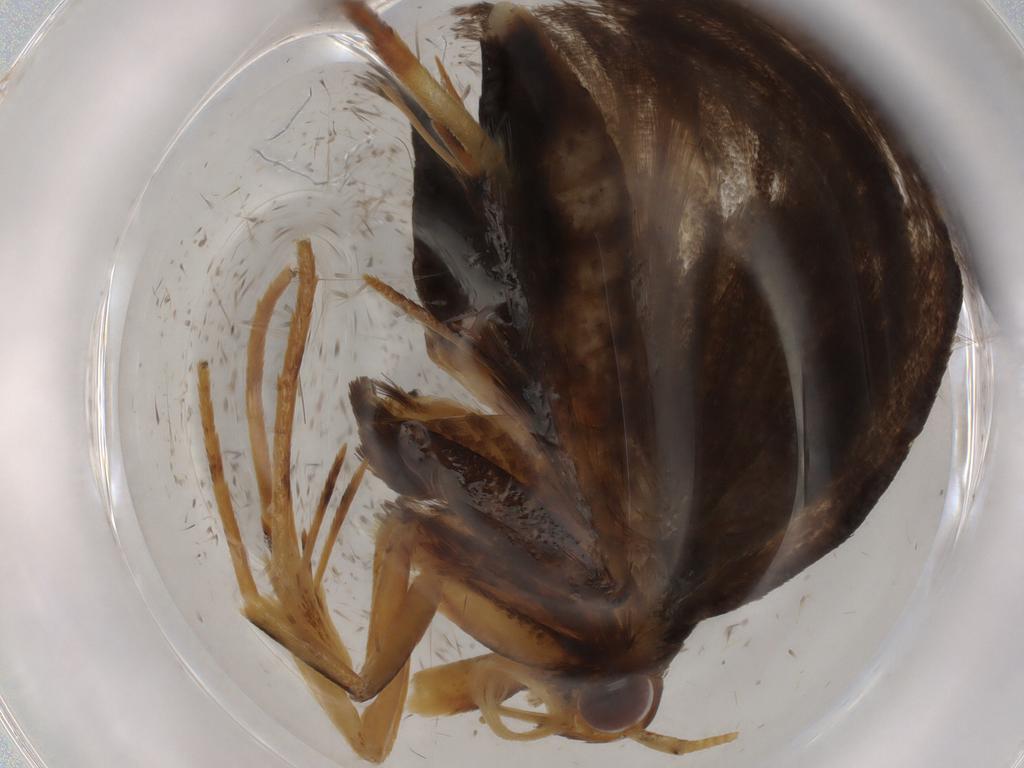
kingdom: Animalia
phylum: Arthropoda
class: Insecta
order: Lepidoptera
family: Lecithoceridae
